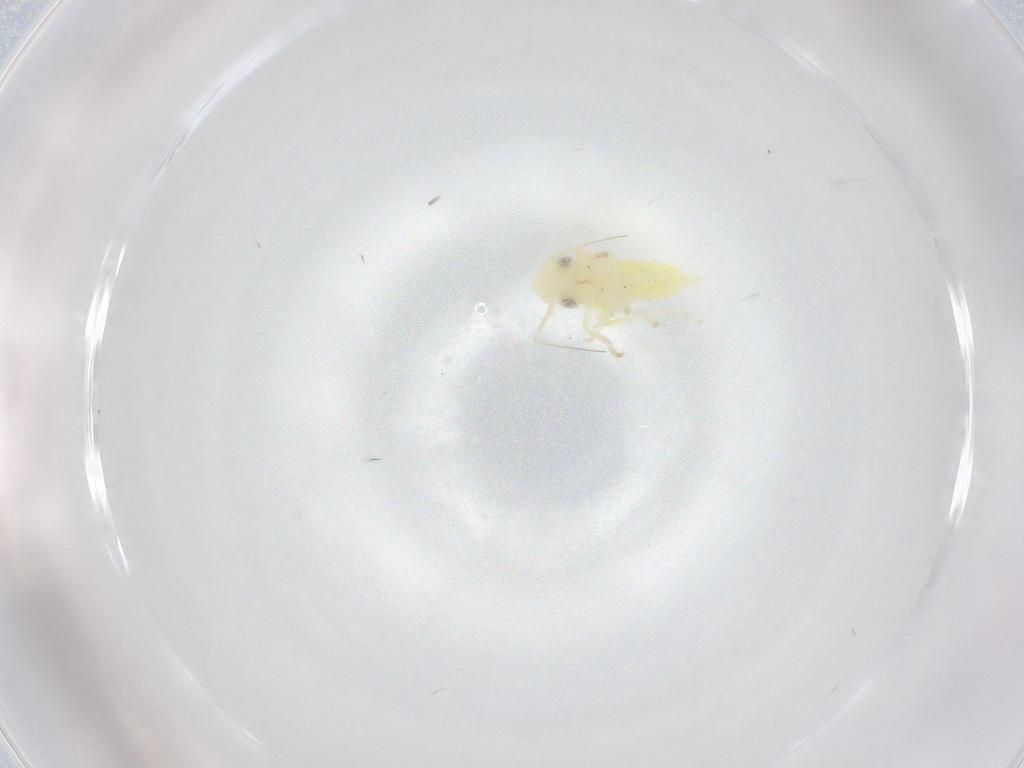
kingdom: Animalia
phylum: Arthropoda
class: Insecta
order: Hemiptera
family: Cicadellidae
